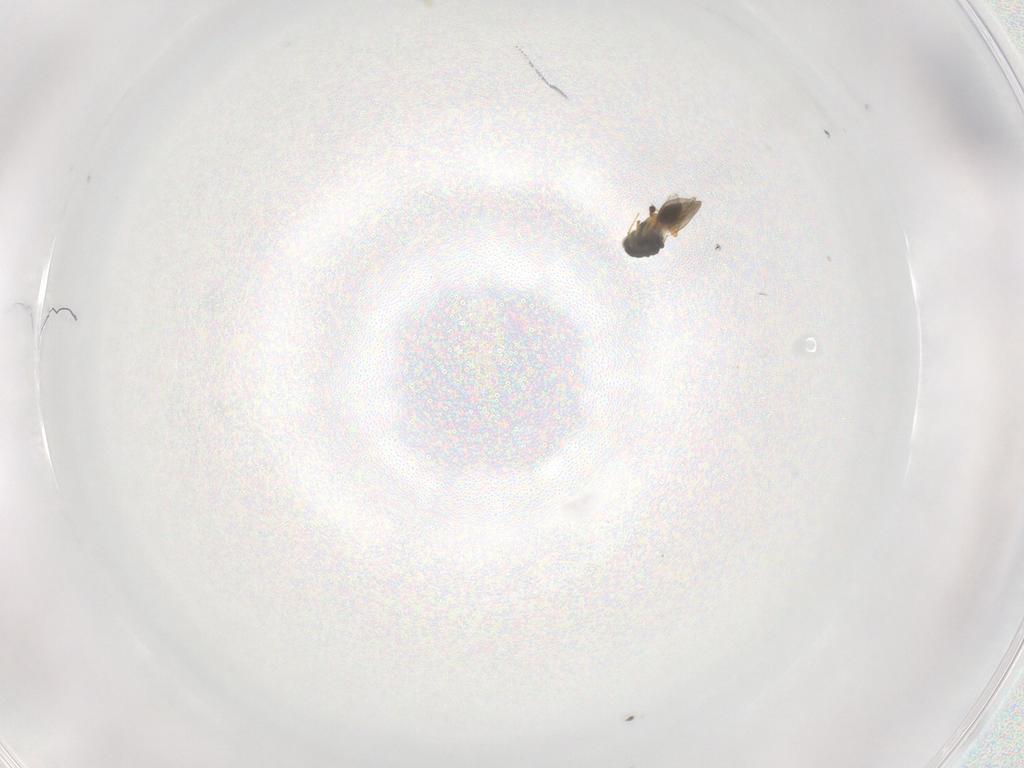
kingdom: Animalia
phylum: Arthropoda
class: Insecta
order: Hymenoptera
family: Platygastridae
